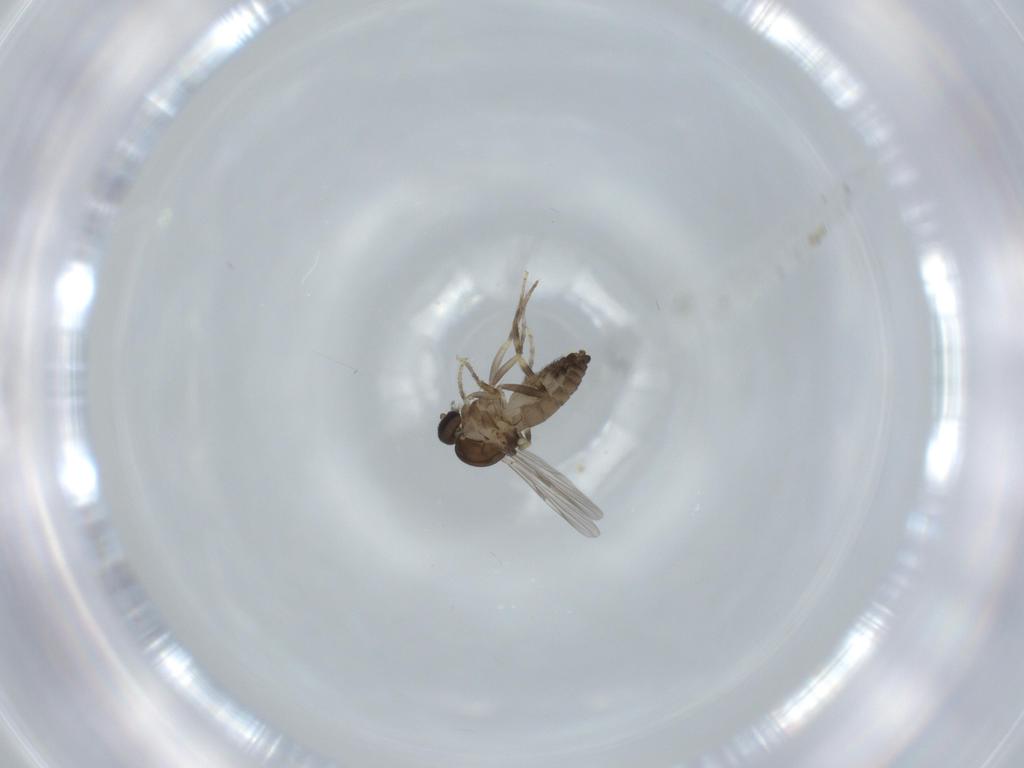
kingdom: Animalia
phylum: Arthropoda
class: Insecta
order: Diptera
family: Ceratopogonidae
